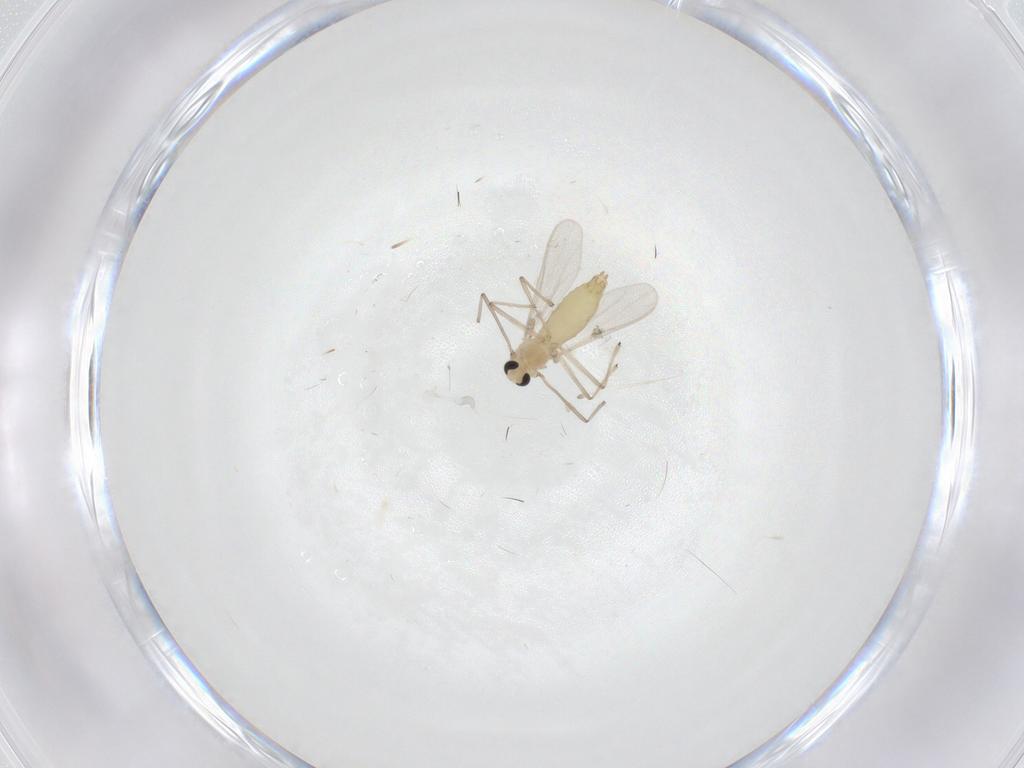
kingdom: Animalia
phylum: Arthropoda
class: Insecta
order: Diptera
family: Chironomidae
